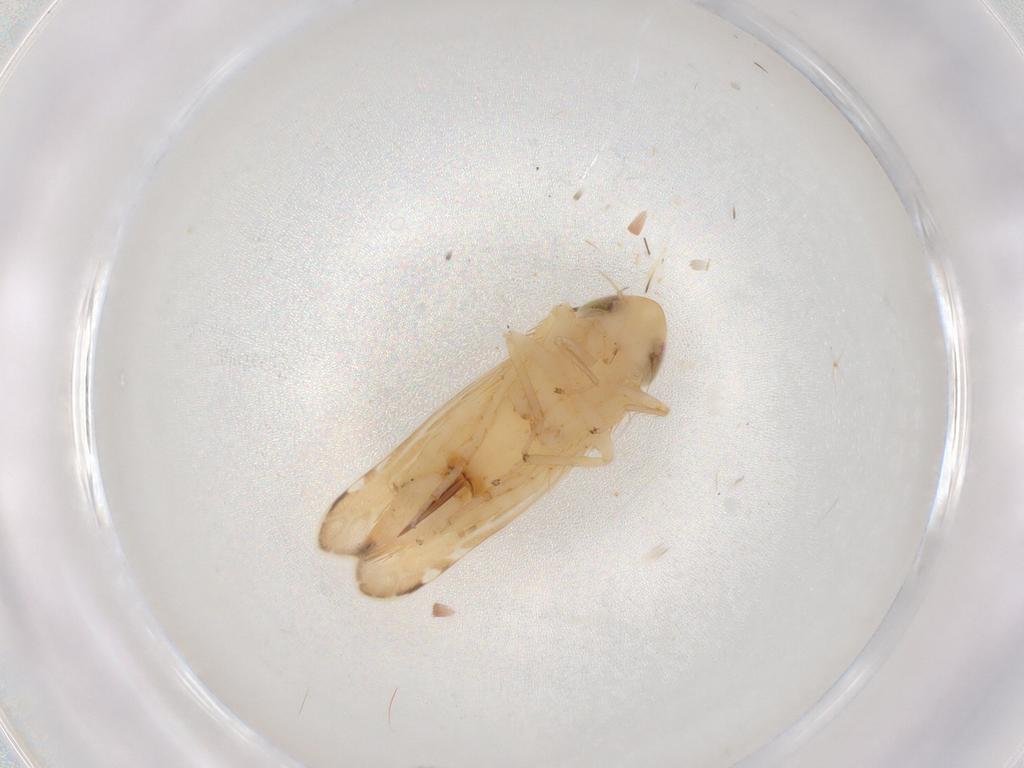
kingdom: Animalia
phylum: Arthropoda
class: Insecta
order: Hemiptera
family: Cicadellidae
